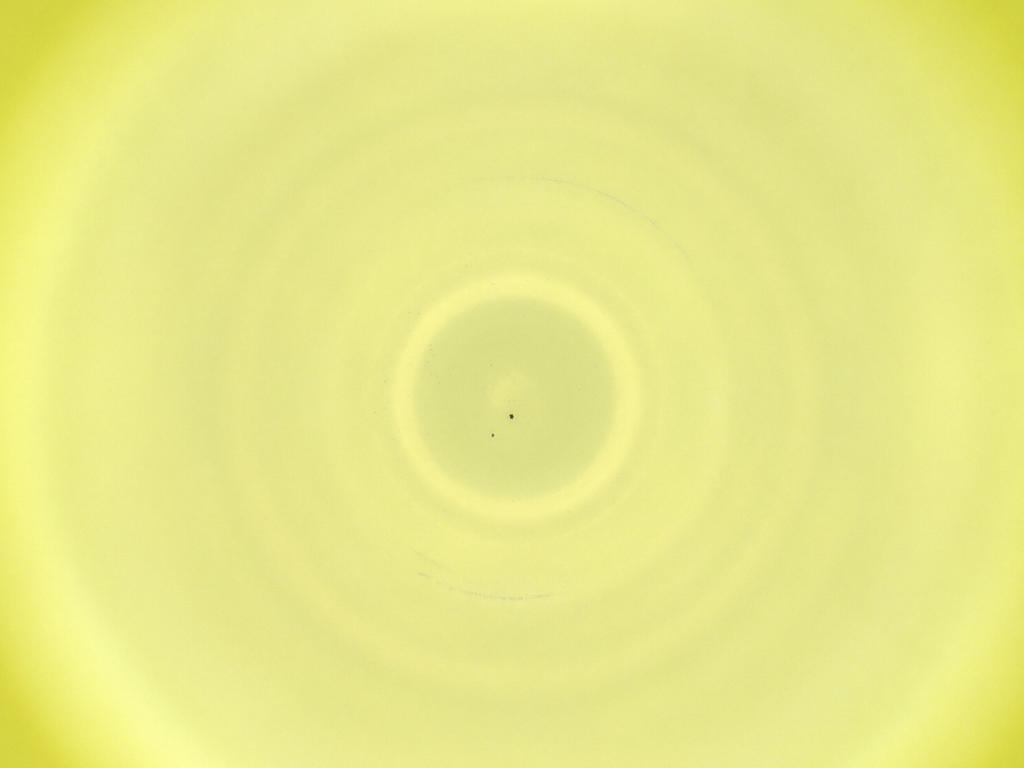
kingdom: Animalia
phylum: Arthropoda
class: Insecta
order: Diptera
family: Cecidomyiidae
